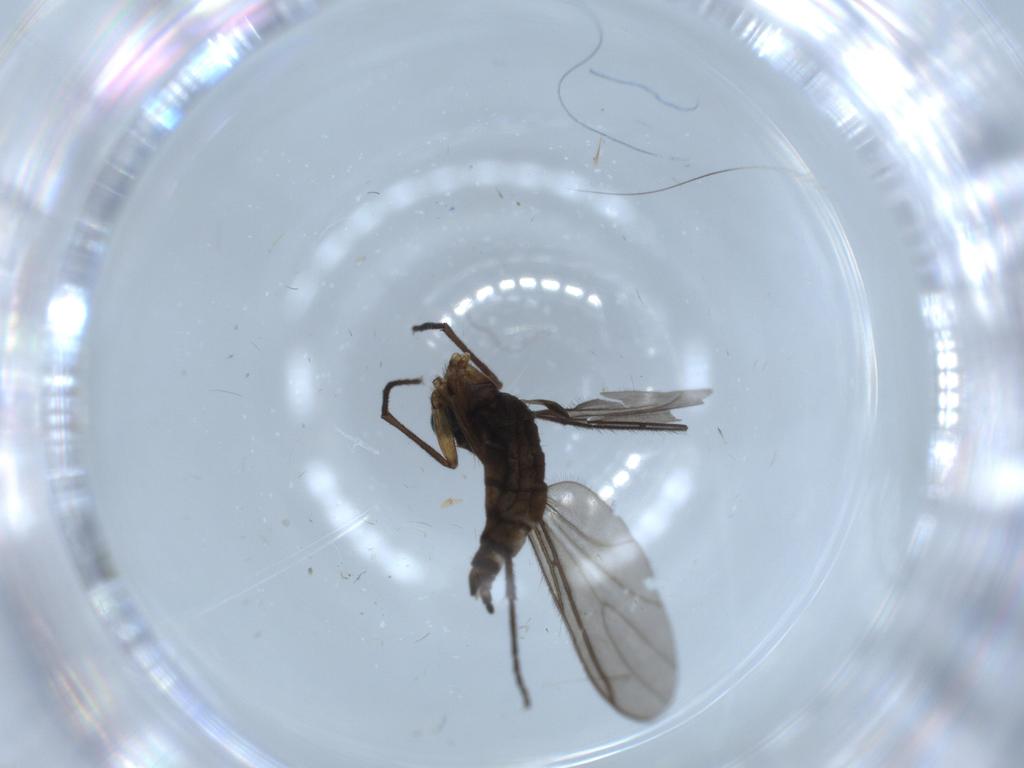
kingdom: Animalia
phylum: Arthropoda
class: Insecta
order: Diptera
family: Sciaridae
